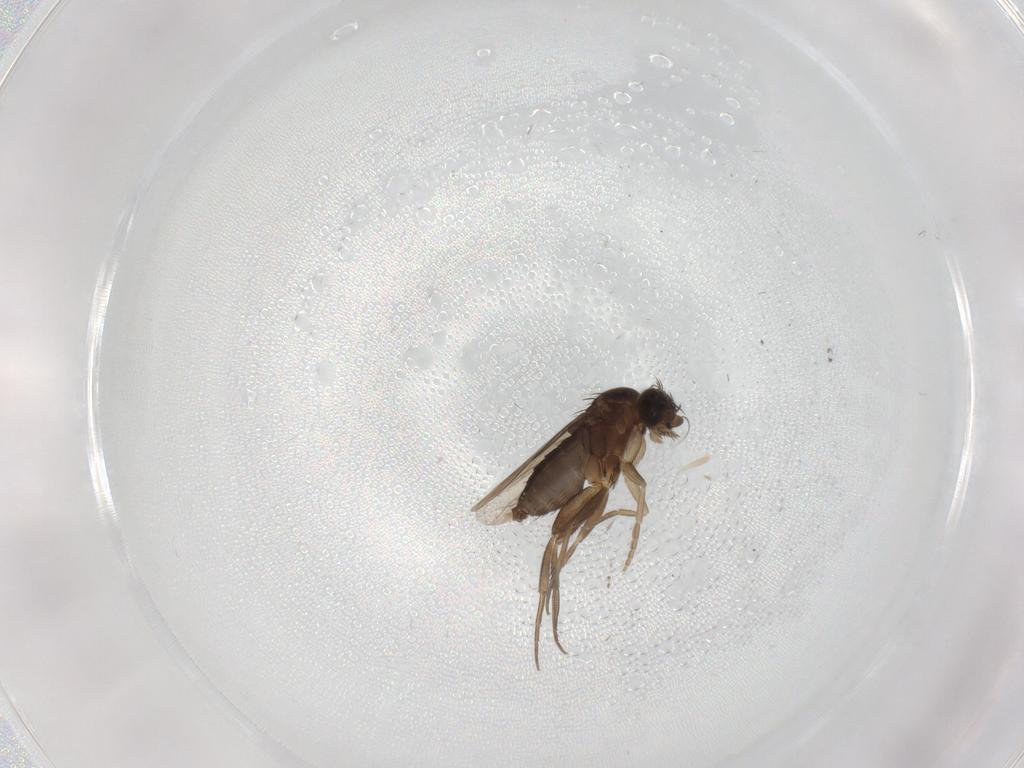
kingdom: Animalia
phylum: Arthropoda
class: Insecta
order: Diptera
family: Phoridae
